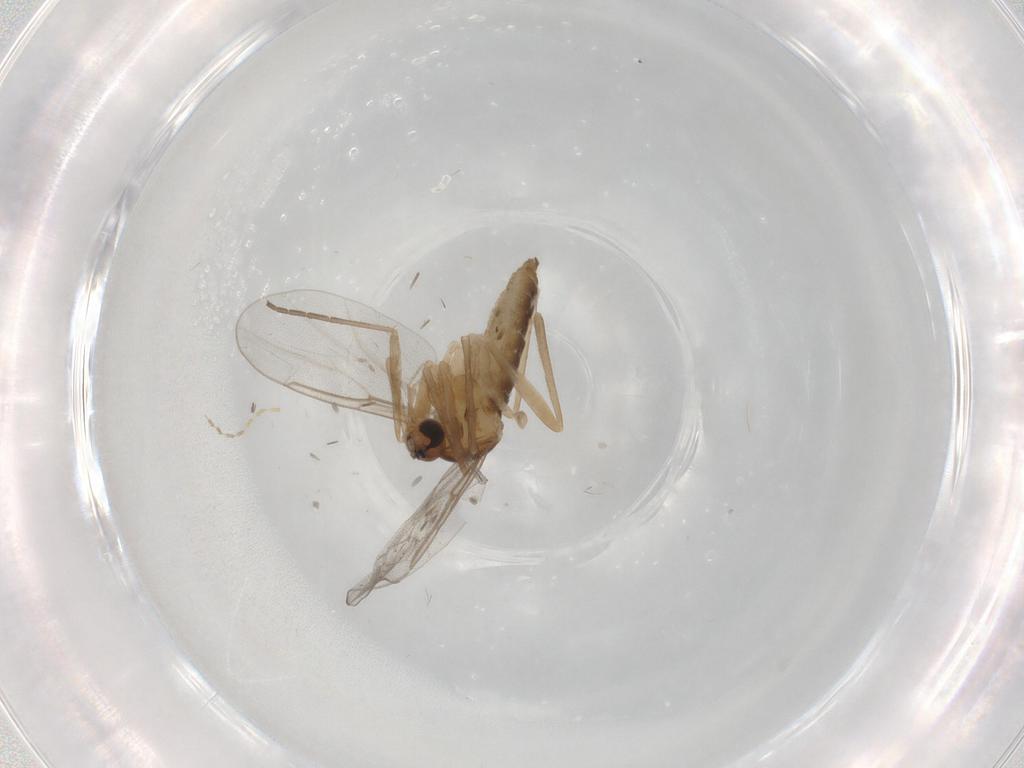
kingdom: Animalia
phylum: Arthropoda
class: Insecta
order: Diptera
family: Cecidomyiidae
